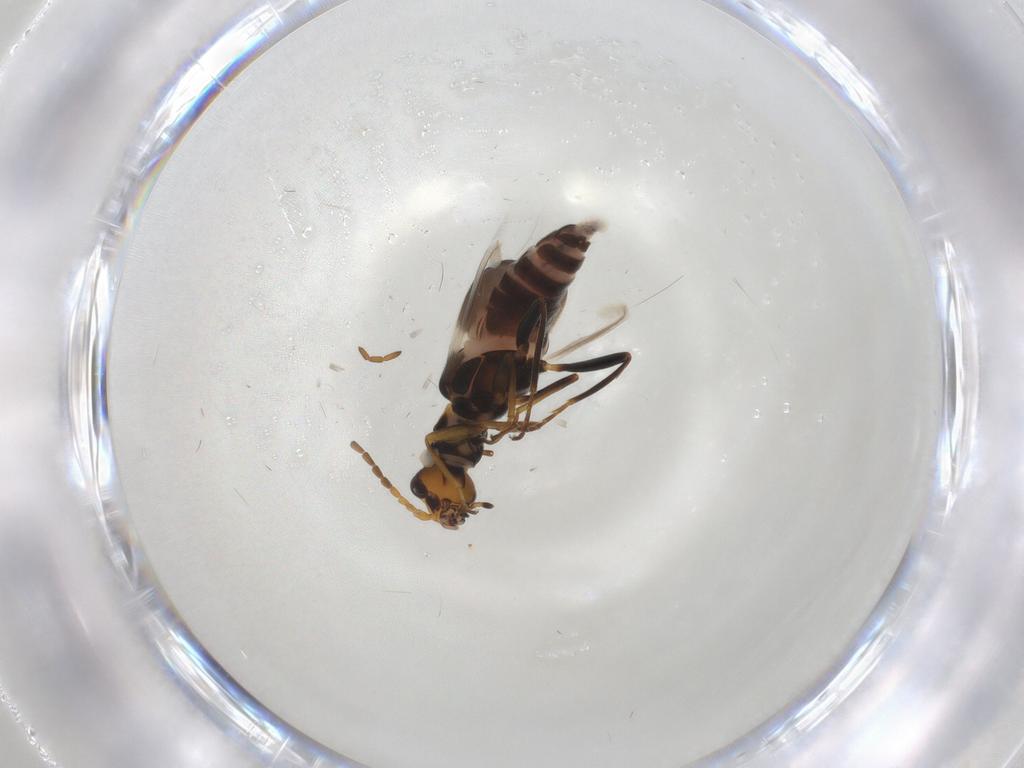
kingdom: Animalia
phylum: Arthropoda
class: Insecta
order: Coleoptera
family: Melyridae
